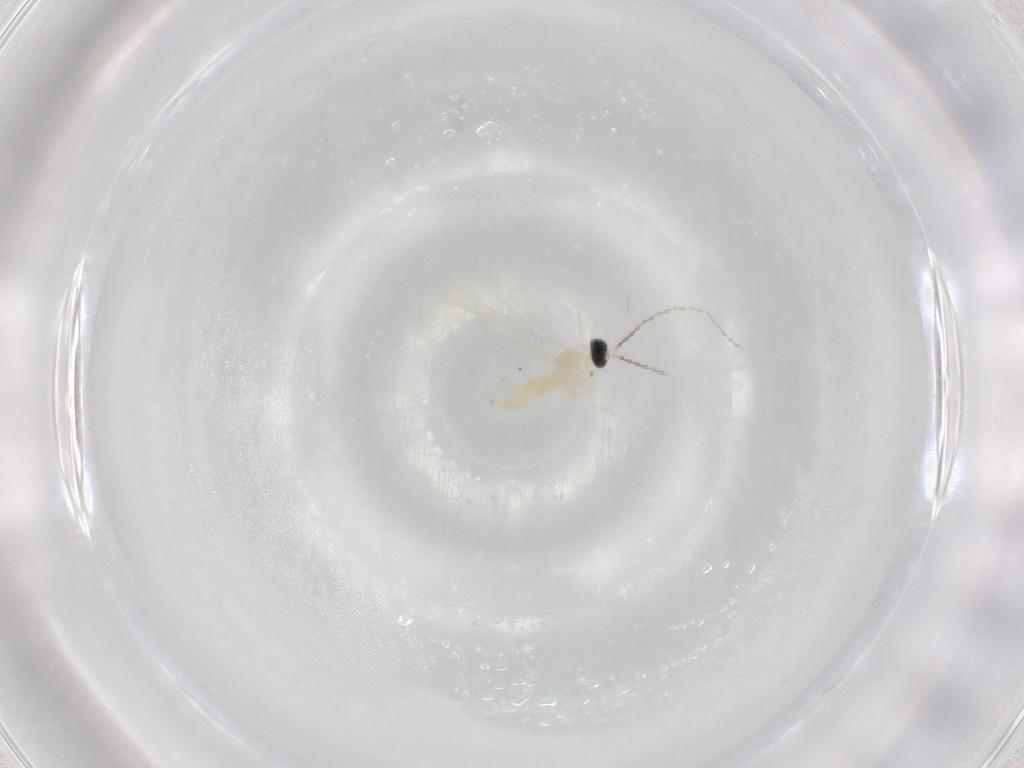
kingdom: Animalia
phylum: Arthropoda
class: Insecta
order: Diptera
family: Cecidomyiidae
